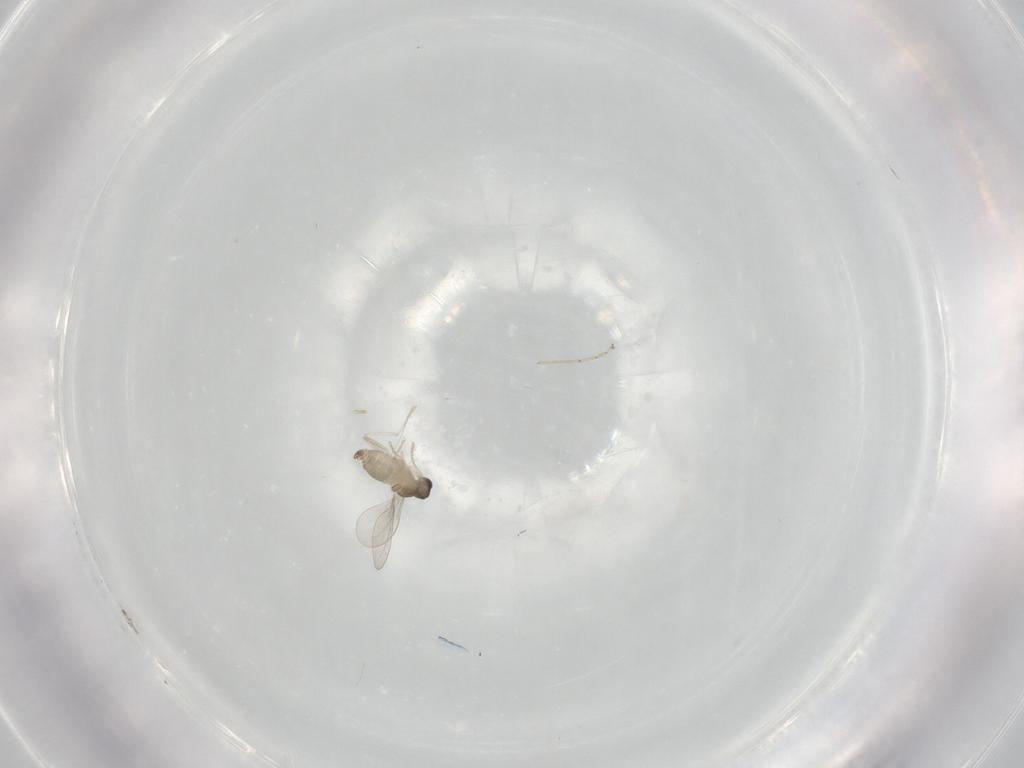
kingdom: Animalia
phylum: Arthropoda
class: Insecta
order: Diptera
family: Cecidomyiidae
